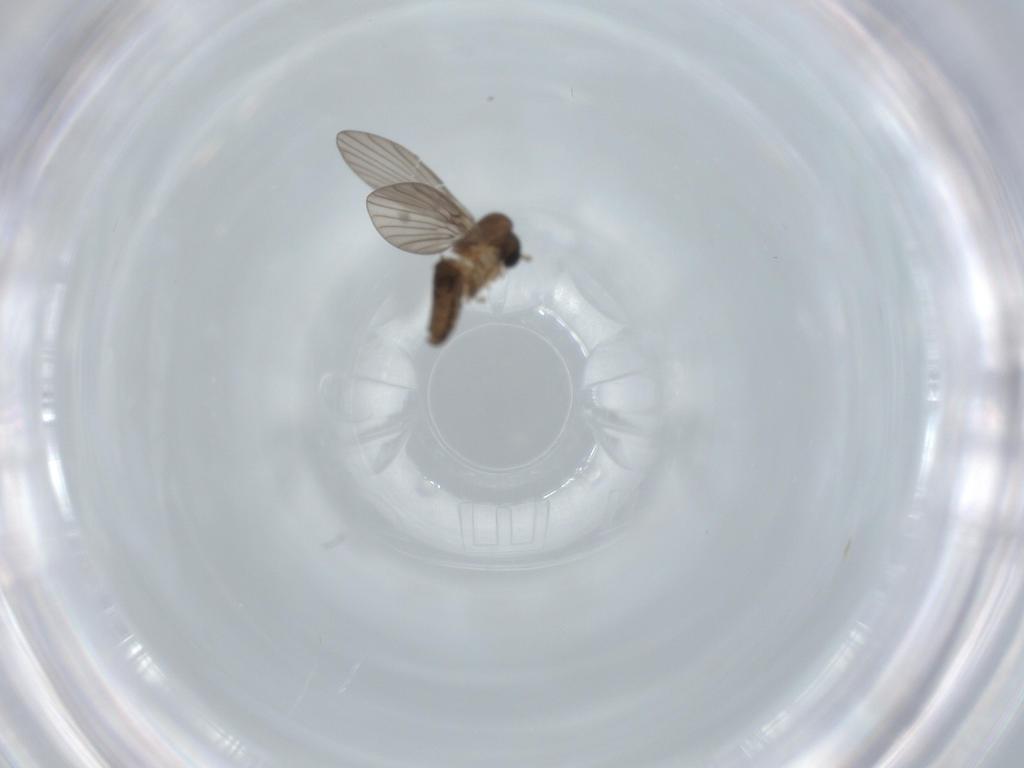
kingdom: Animalia
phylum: Arthropoda
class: Insecta
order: Diptera
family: Psychodidae
